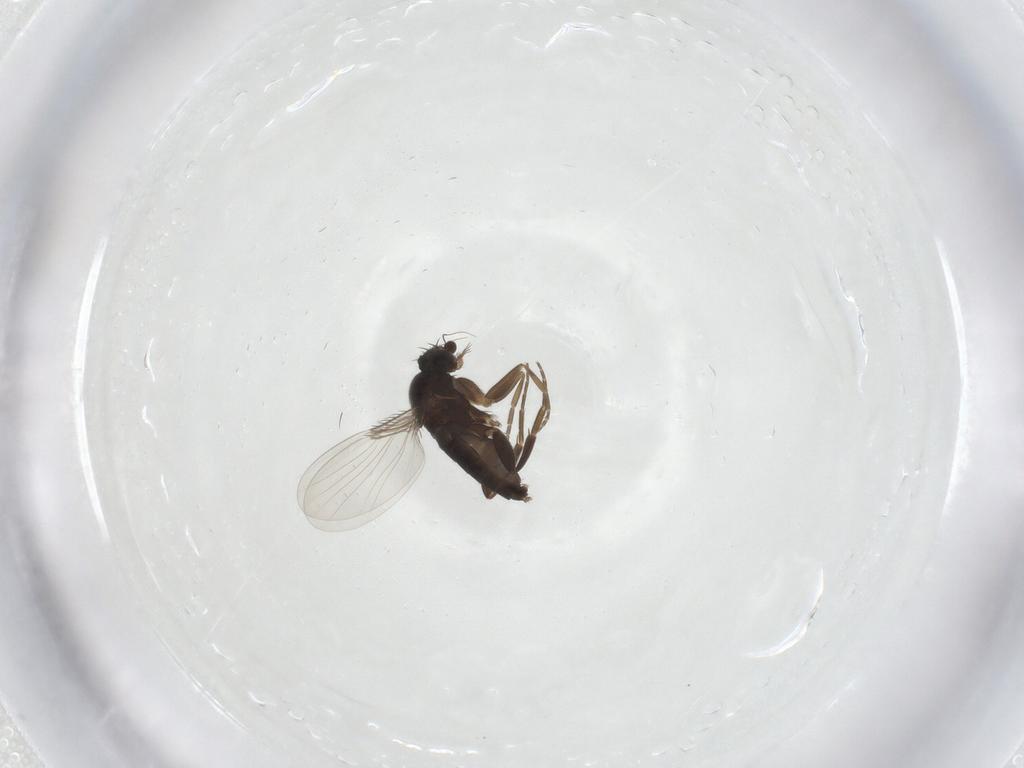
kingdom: Animalia
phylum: Arthropoda
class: Insecta
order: Diptera
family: Phoridae
